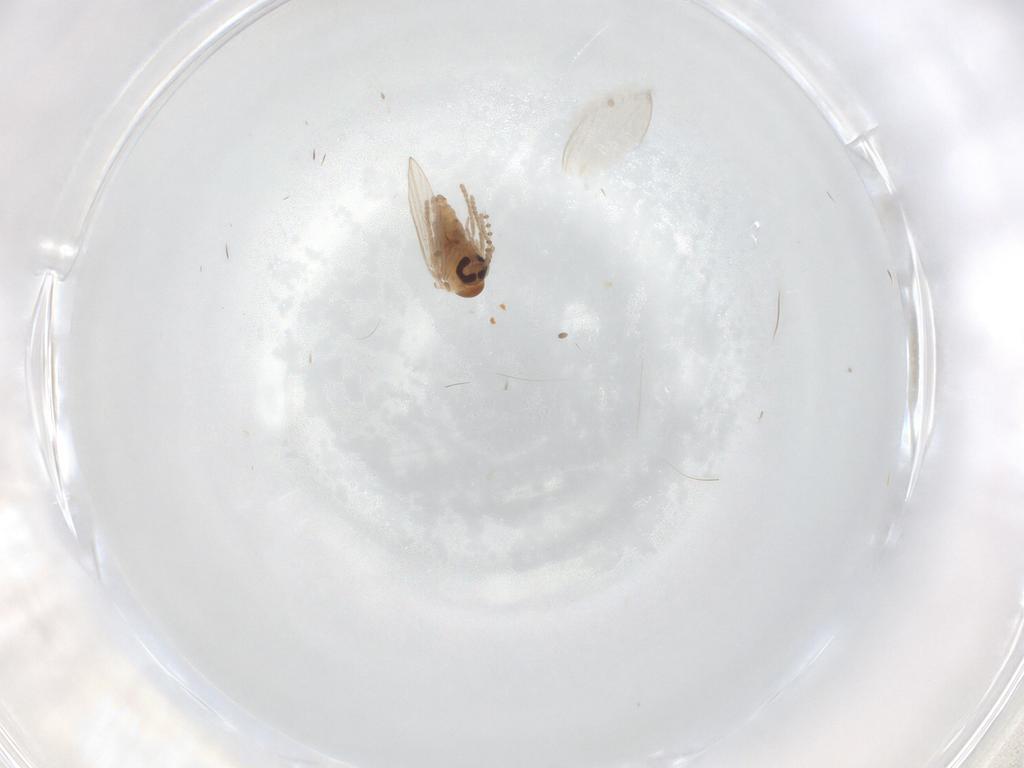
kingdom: Animalia
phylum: Arthropoda
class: Insecta
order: Diptera
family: Psychodidae
